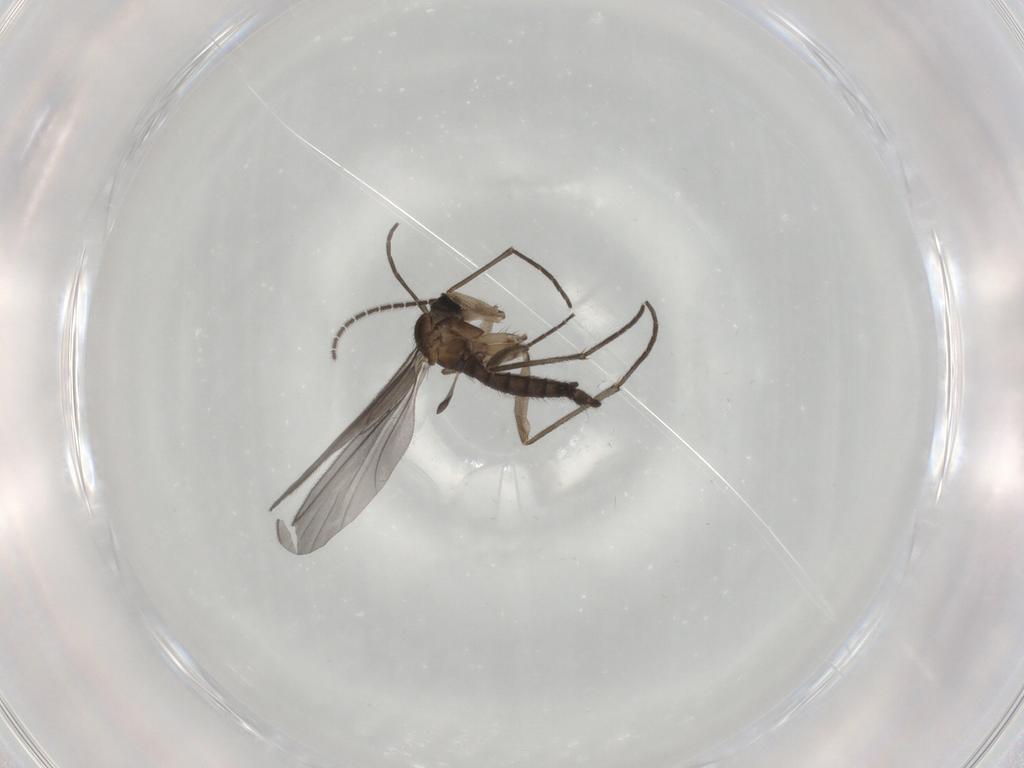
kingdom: Animalia
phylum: Arthropoda
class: Insecta
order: Diptera
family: Sciaridae
